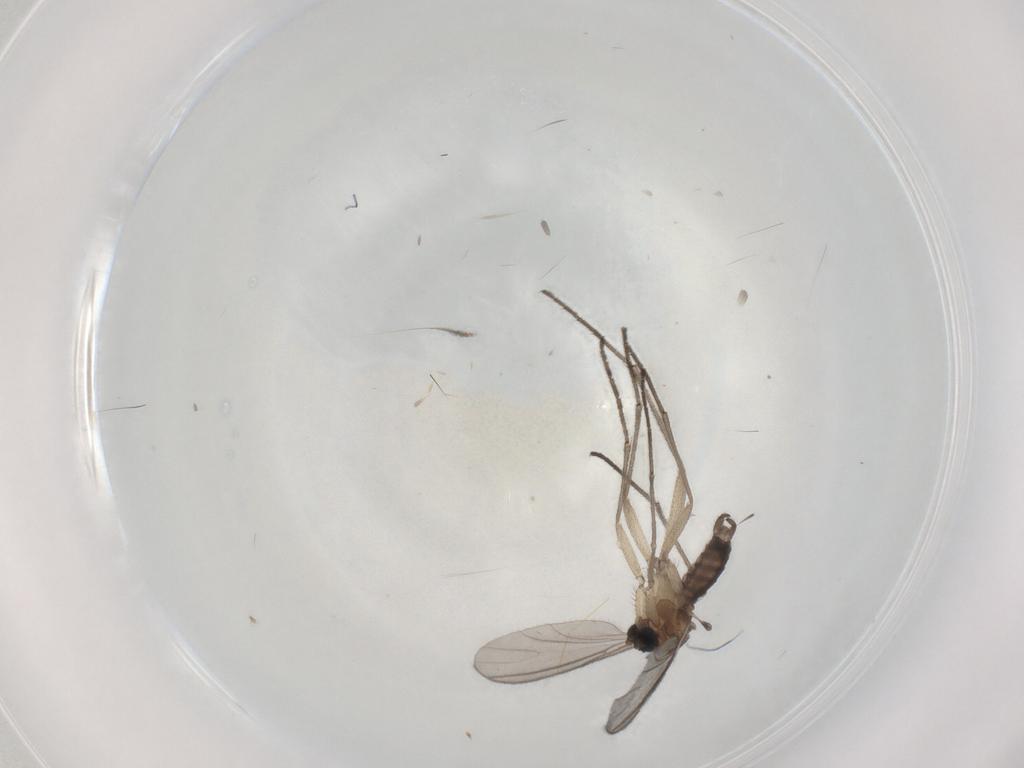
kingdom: Animalia
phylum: Arthropoda
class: Insecta
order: Diptera
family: Sciaridae
